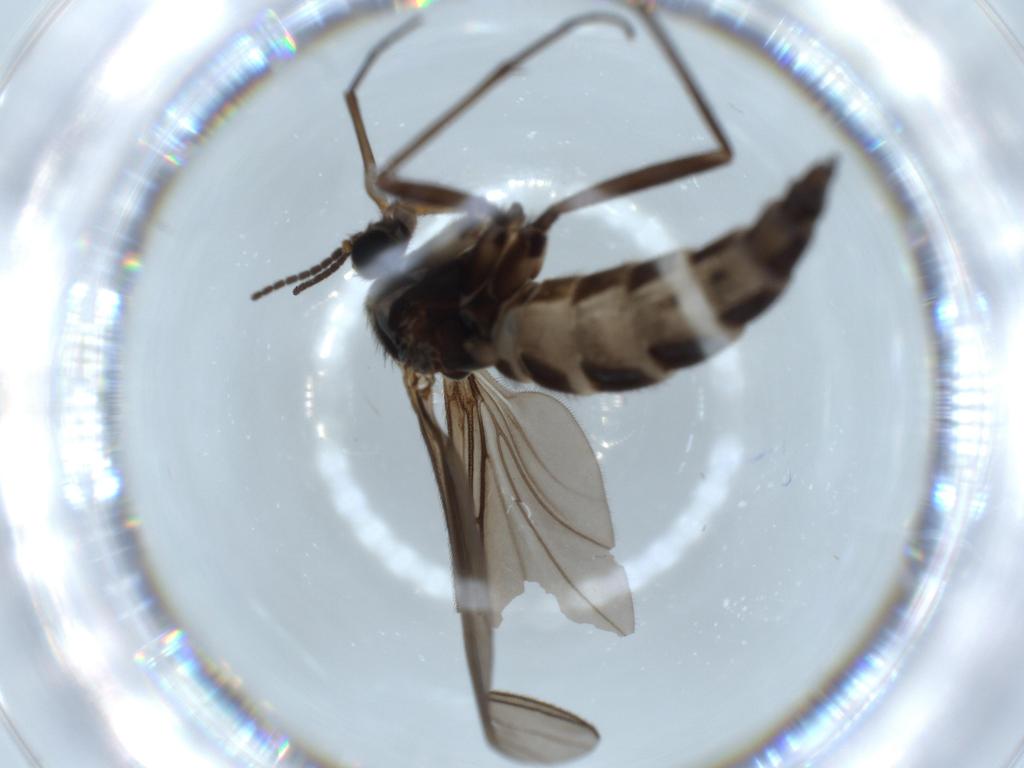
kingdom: Animalia
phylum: Arthropoda
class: Insecta
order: Diptera
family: Sciaridae
